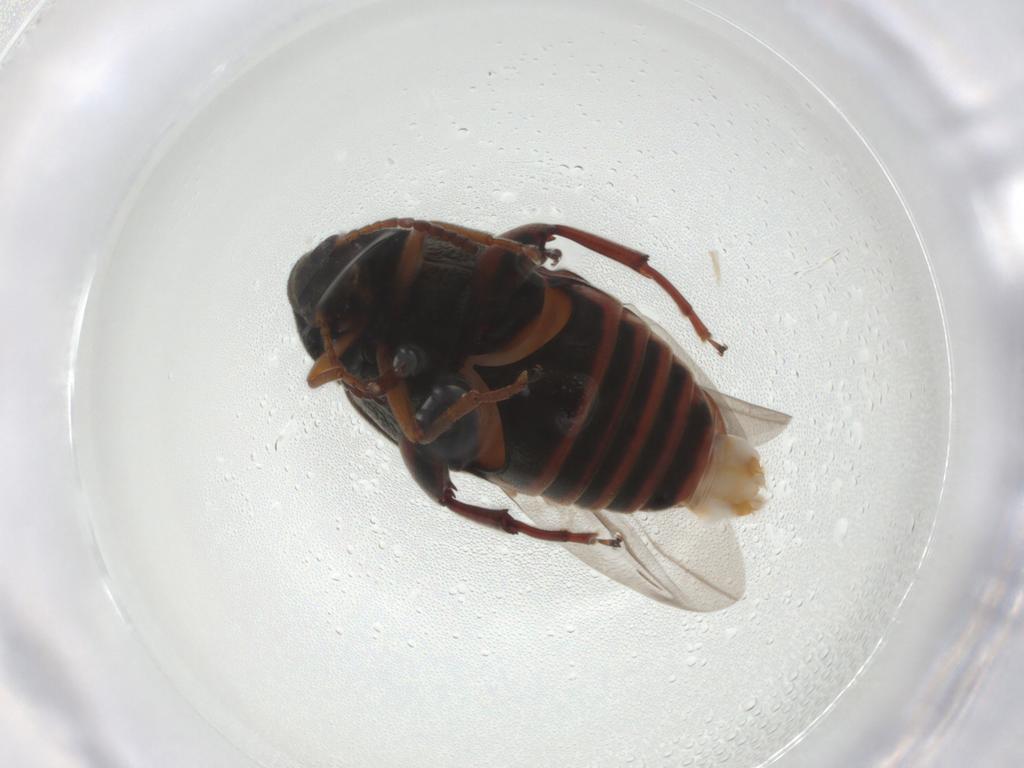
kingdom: Animalia
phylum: Arthropoda
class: Insecta
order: Coleoptera
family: Chrysomelidae
